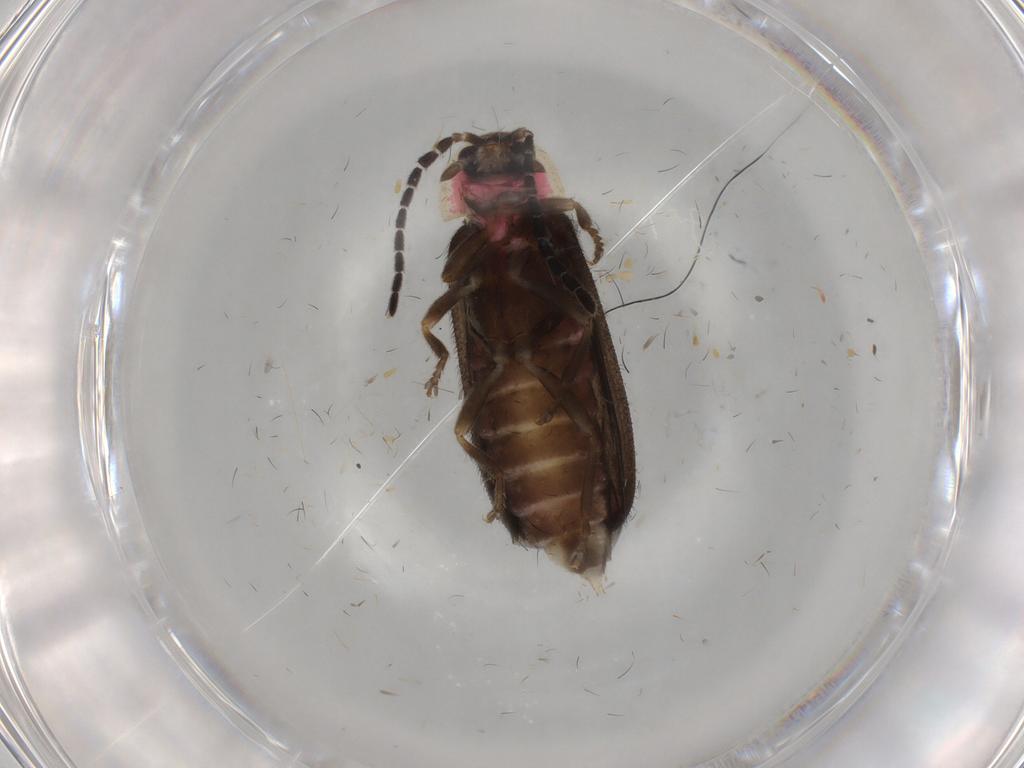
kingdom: Animalia
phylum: Arthropoda
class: Insecta
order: Coleoptera
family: Lampyridae
